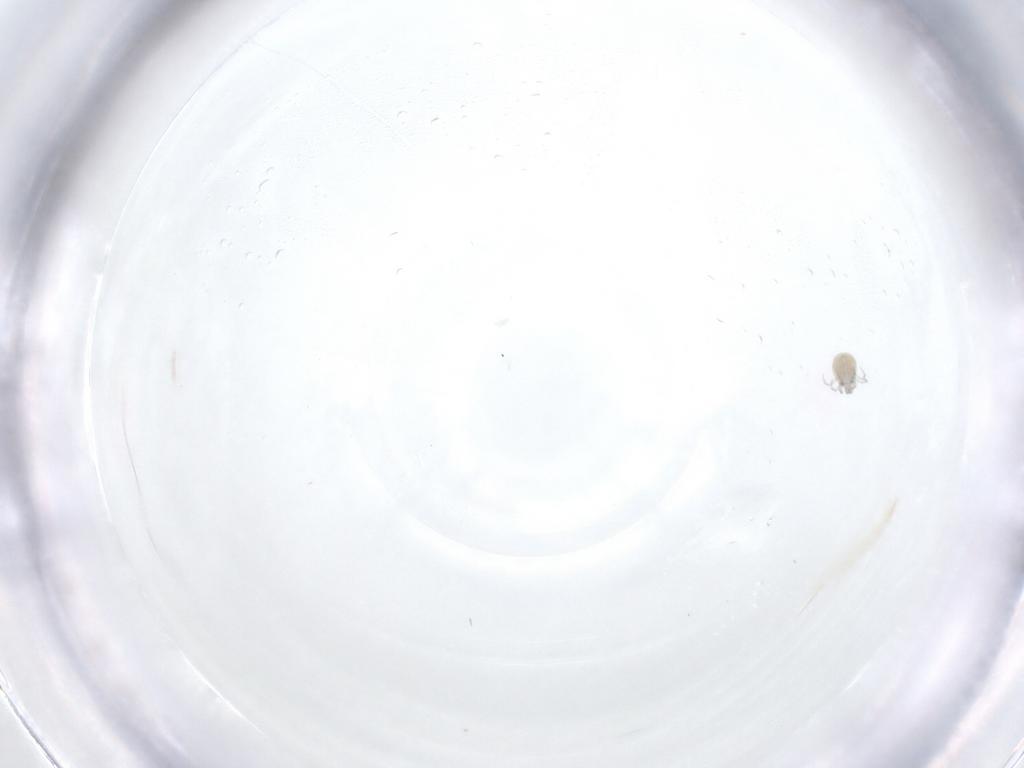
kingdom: Animalia
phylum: Arthropoda
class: Arachnida
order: Trombidiformes
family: Pionidae
